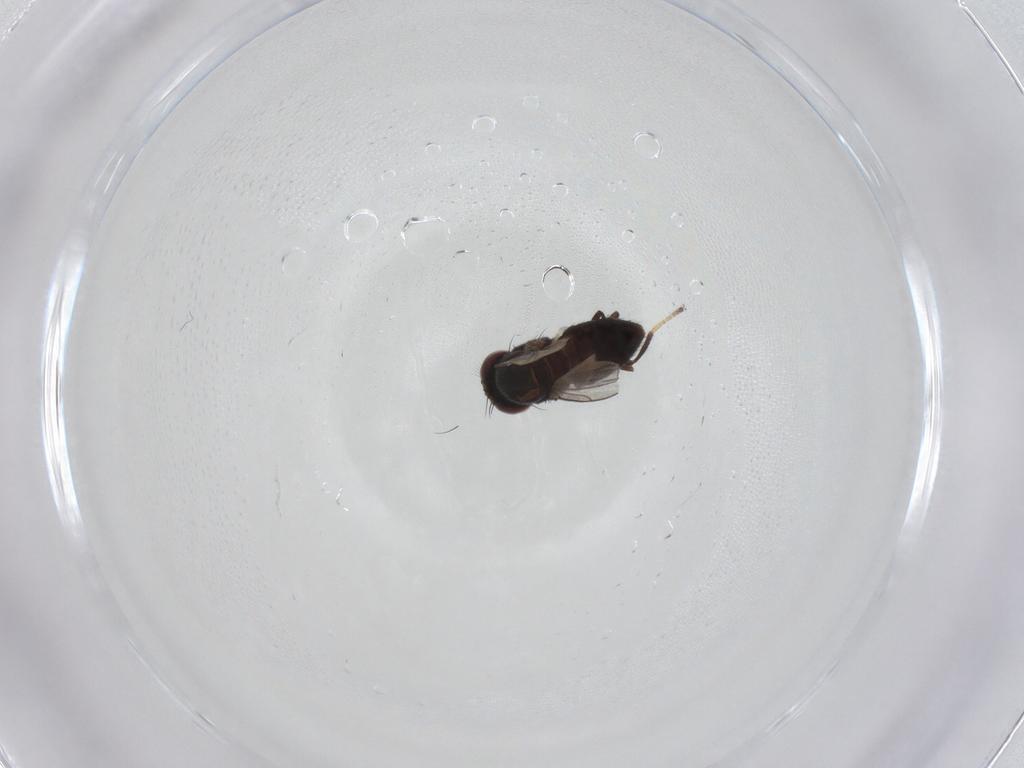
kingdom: Animalia
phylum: Arthropoda
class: Insecta
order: Diptera
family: Ephydridae
